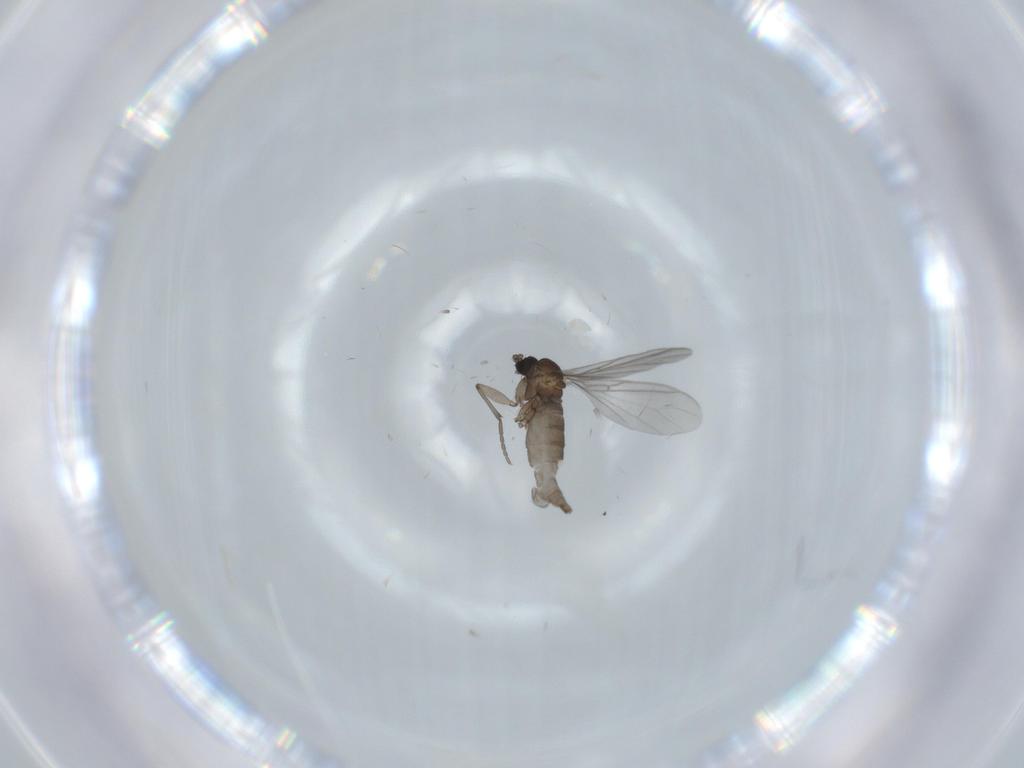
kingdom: Animalia
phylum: Arthropoda
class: Insecta
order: Diptera
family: Sciaridae
